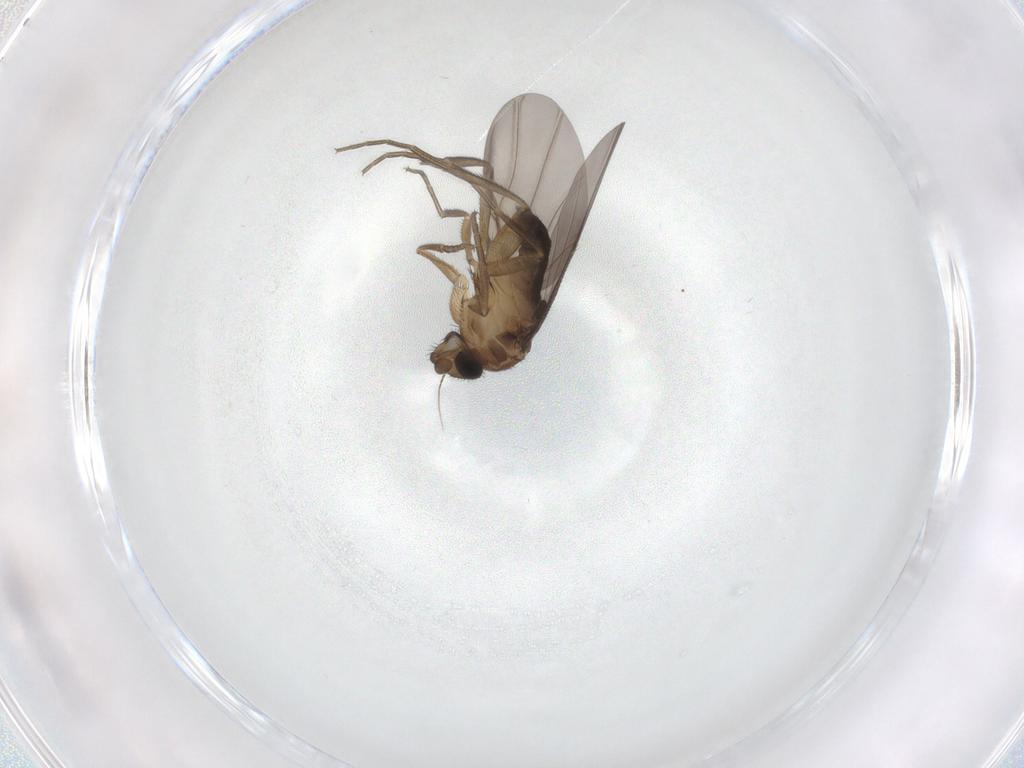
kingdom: Animalia
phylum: Arthropoda
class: Insecta
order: Diptera
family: Phoridae
